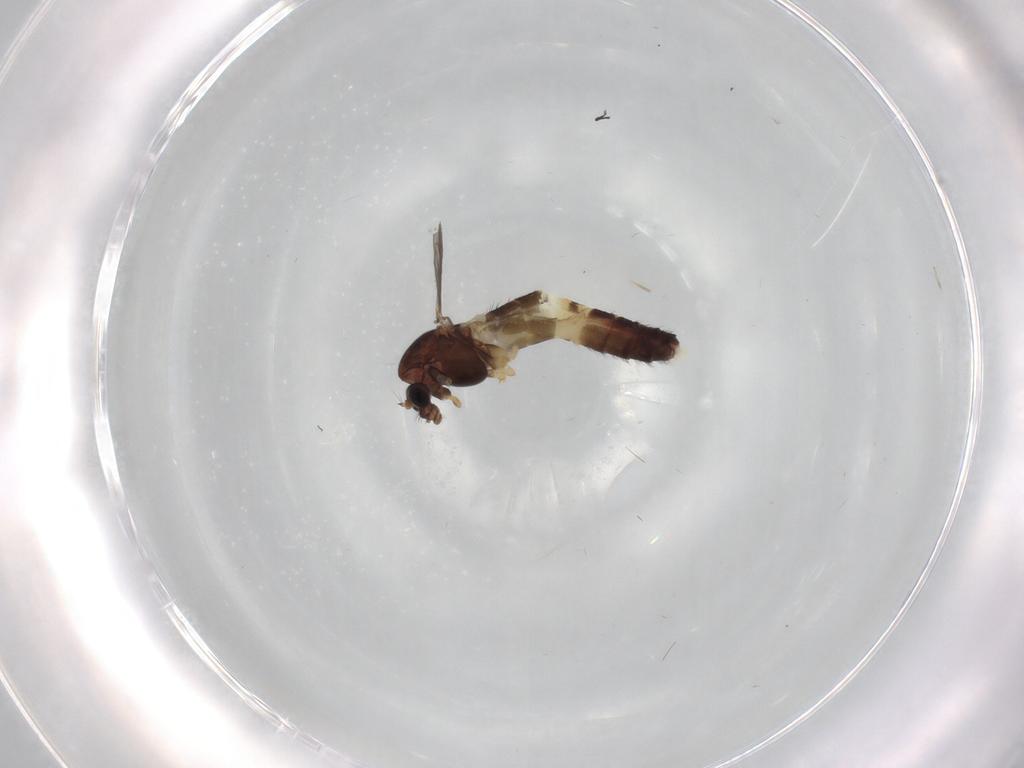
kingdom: Animalia
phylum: Arthropoda
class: Insecta
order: Diptera
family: Chironomidae
